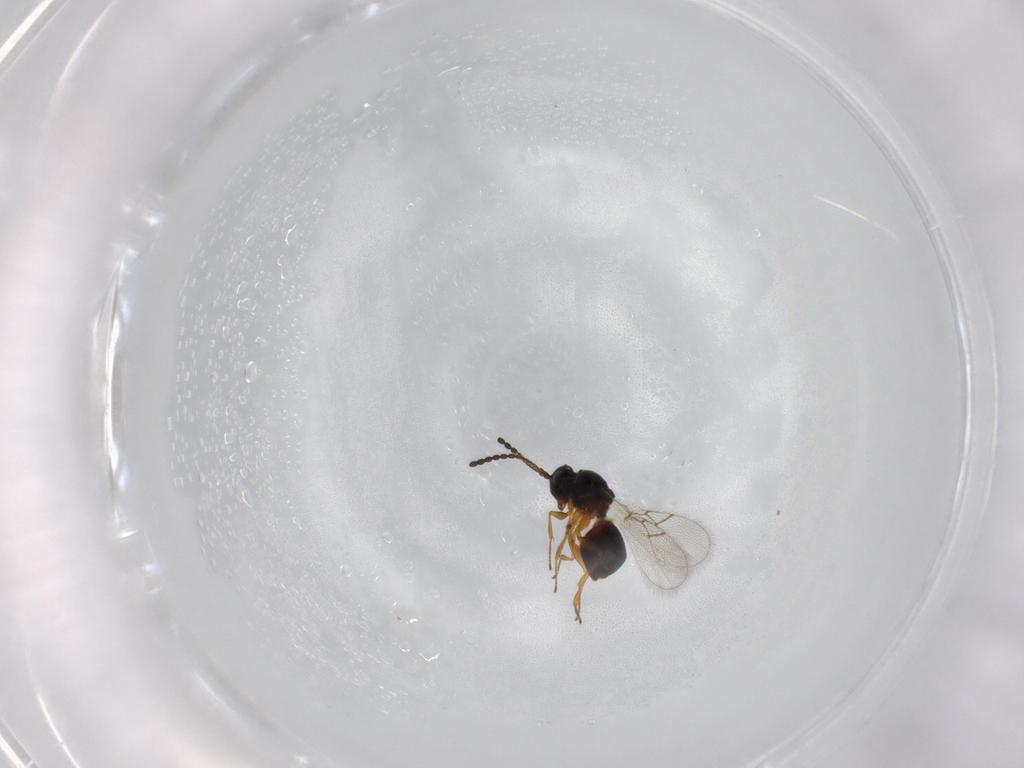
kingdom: Animalia
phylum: Arthropoda
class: Insecta
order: Hymenoptera
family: Figitidae
